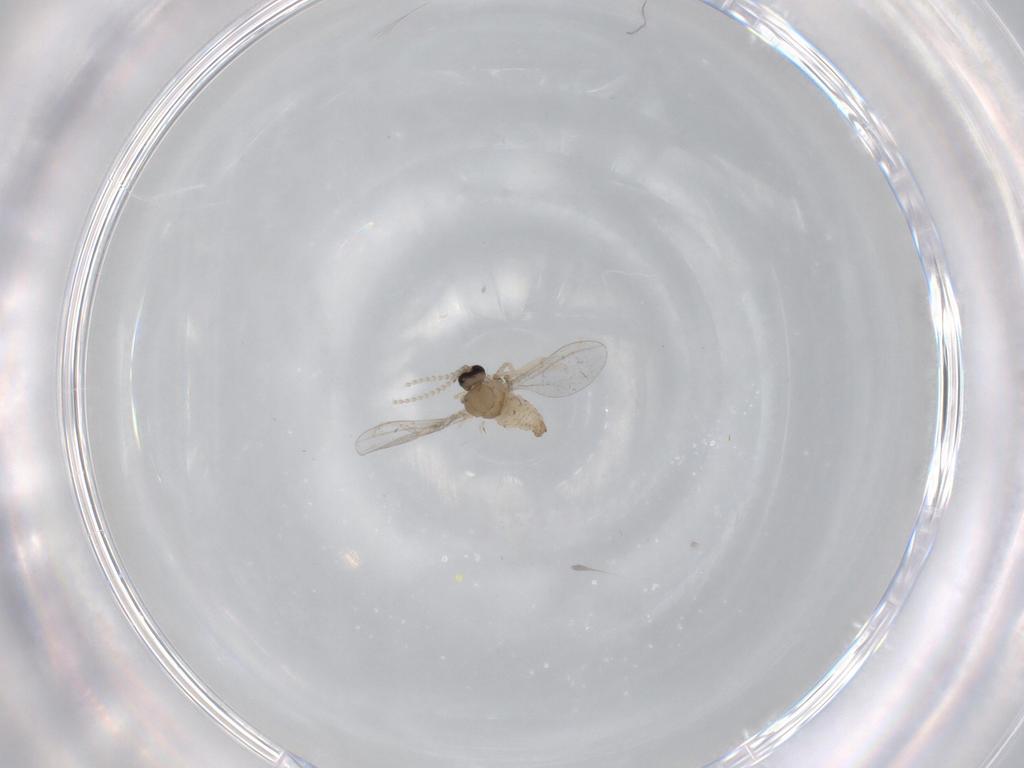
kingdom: Animalia
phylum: Arthropoda
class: Insecta
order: Diptera
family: Cecidomyiidae
